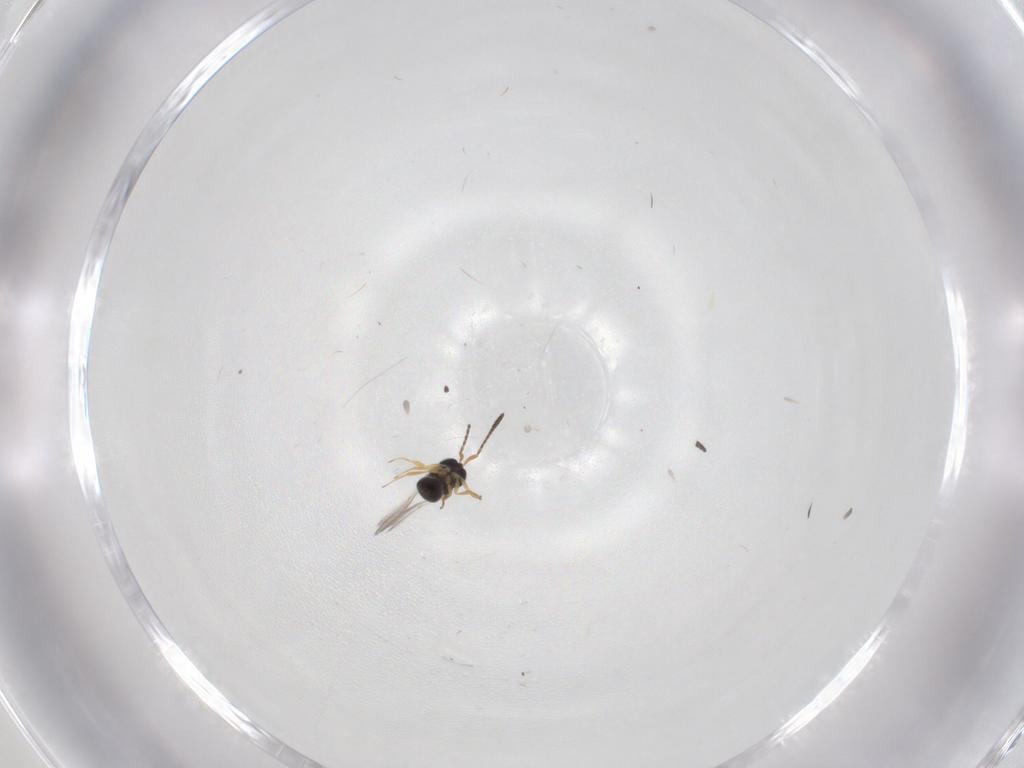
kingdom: Animalia
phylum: Arthropoda
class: Insecta
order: Hymenoptera
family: Scelionidae
